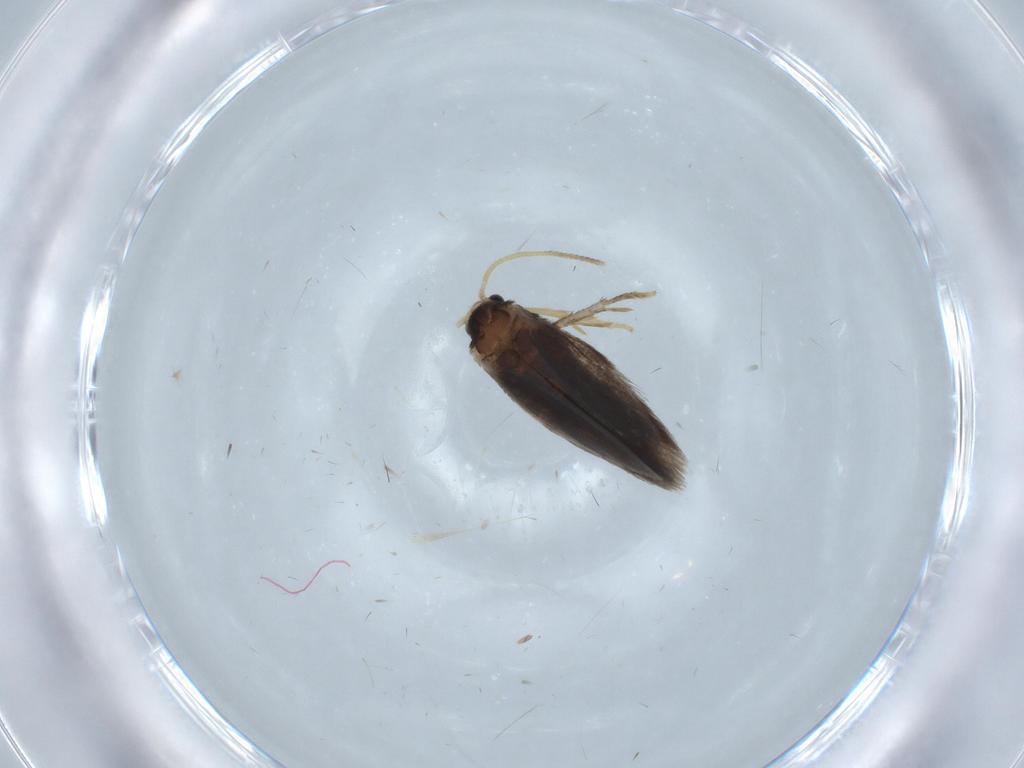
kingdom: Animalia
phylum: Arthropoda
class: Insecta
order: Lepidoptera
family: Nepticulidae
